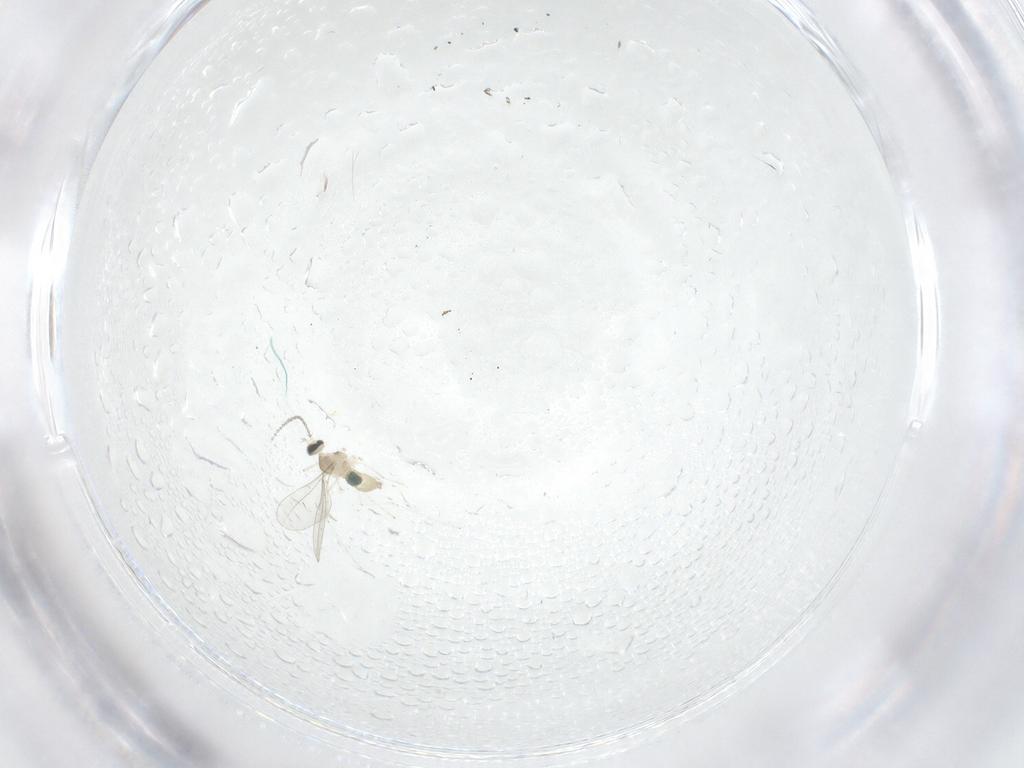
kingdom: Animalia
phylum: Arthropoda
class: Insecta
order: Diptera
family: Cecidomyiidae
